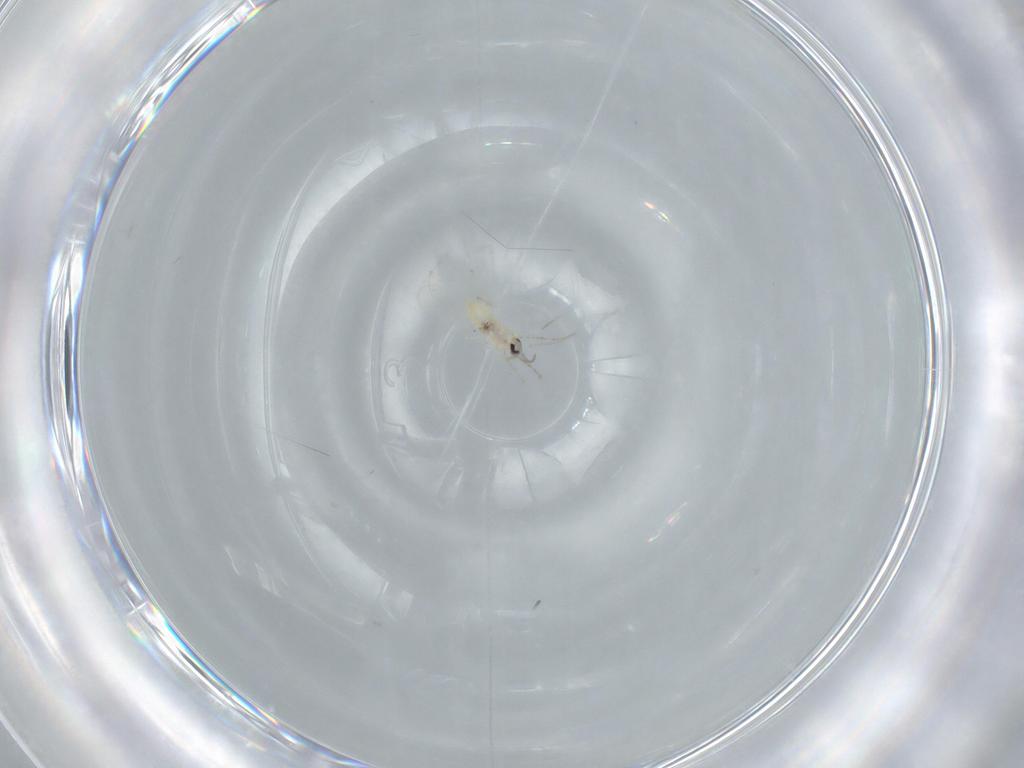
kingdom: Animalia
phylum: Arthropoda
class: Insecta
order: Diptera
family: Cecidomyiidae
